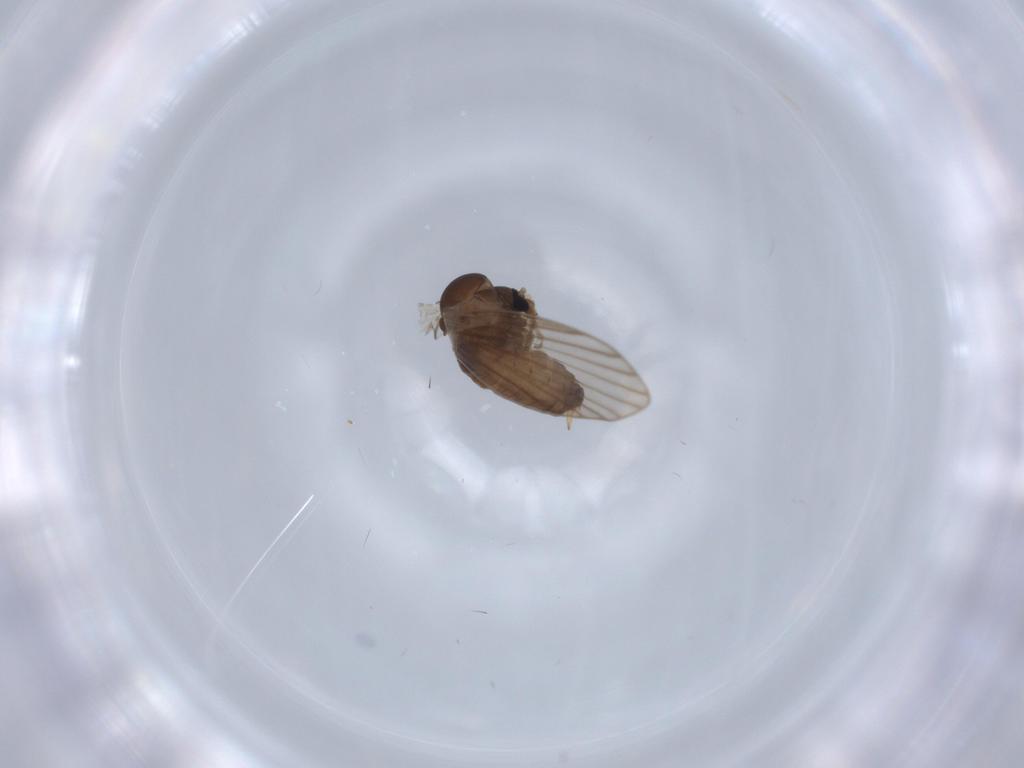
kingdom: Animalia
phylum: Arthropoda
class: Insecta
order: Diptera
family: Psychodidae
